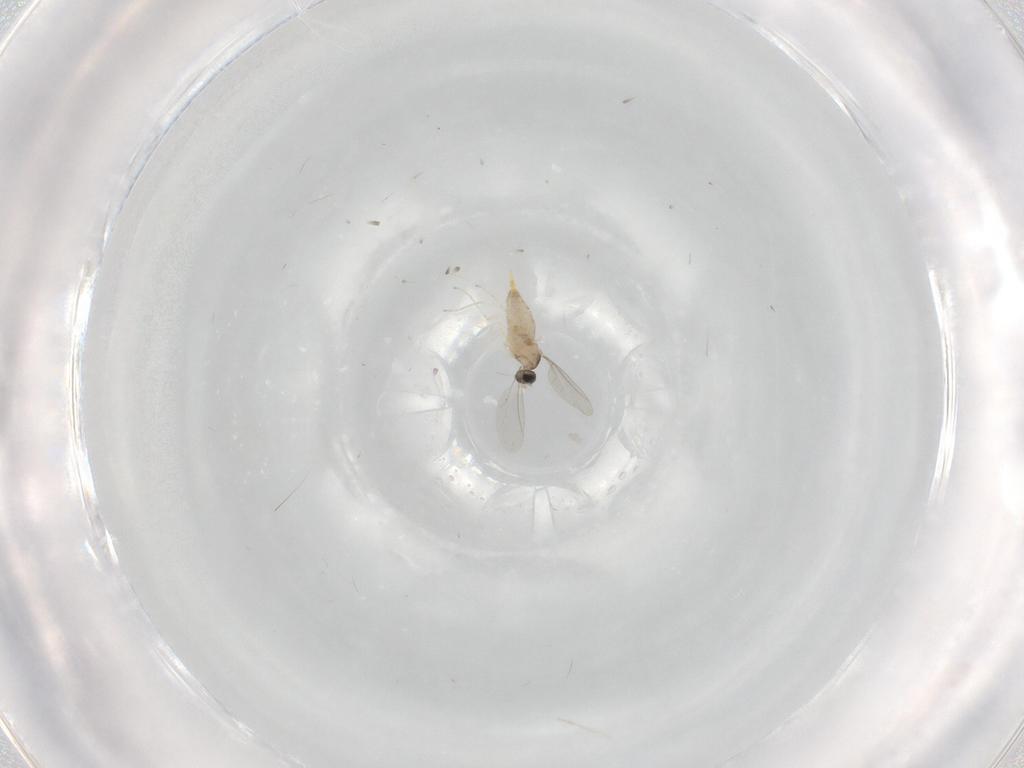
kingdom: Animalia
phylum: Arthropoda
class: Insecta
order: Diptera
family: Cecidomyiidae
